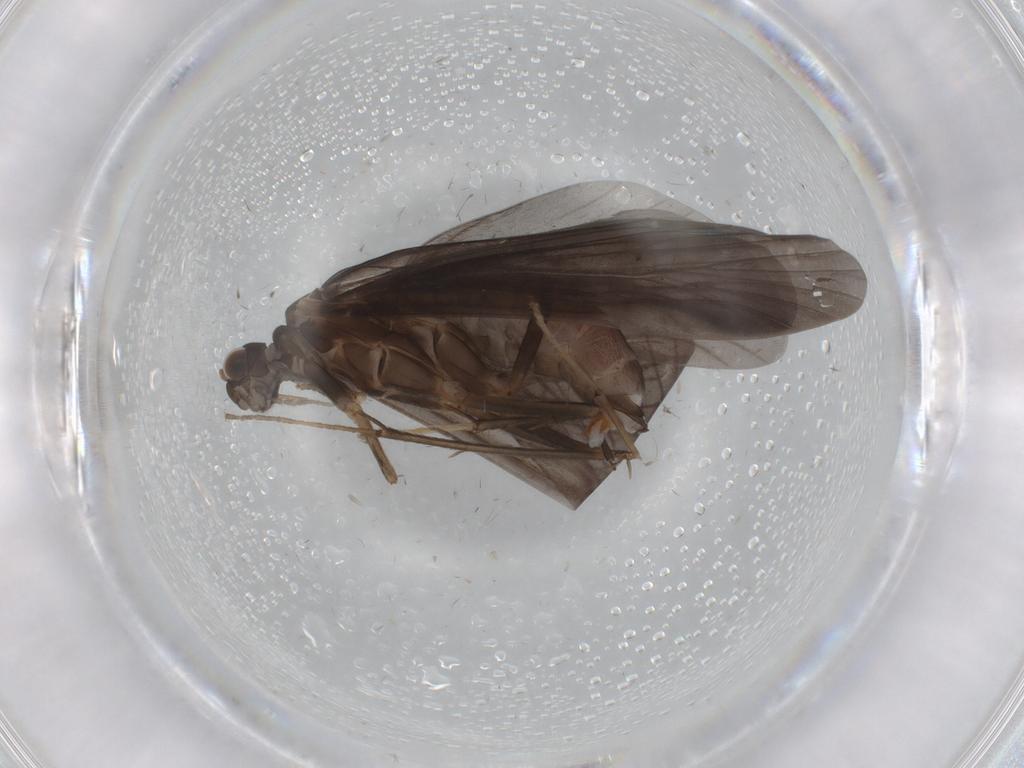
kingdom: Animalia
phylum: Arthropoda
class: Insecta
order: Trichoptera
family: Hydropsychidae
